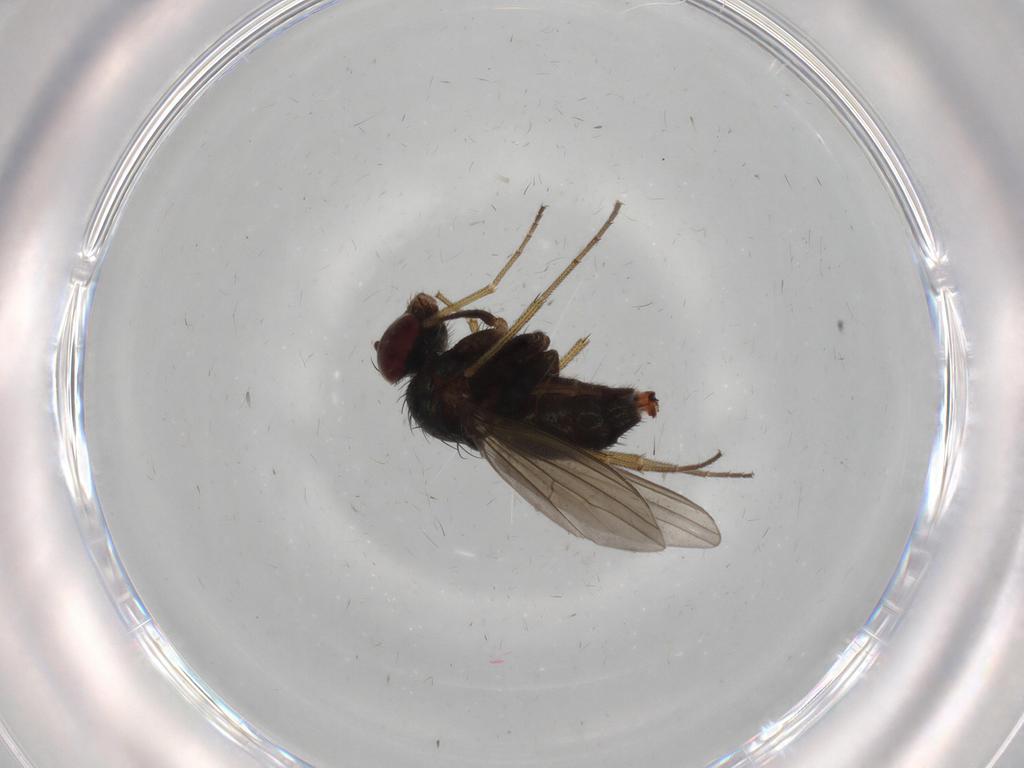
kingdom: Animalia
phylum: Arthropoda
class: Insecta
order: Diptera
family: Dolichopodidae
